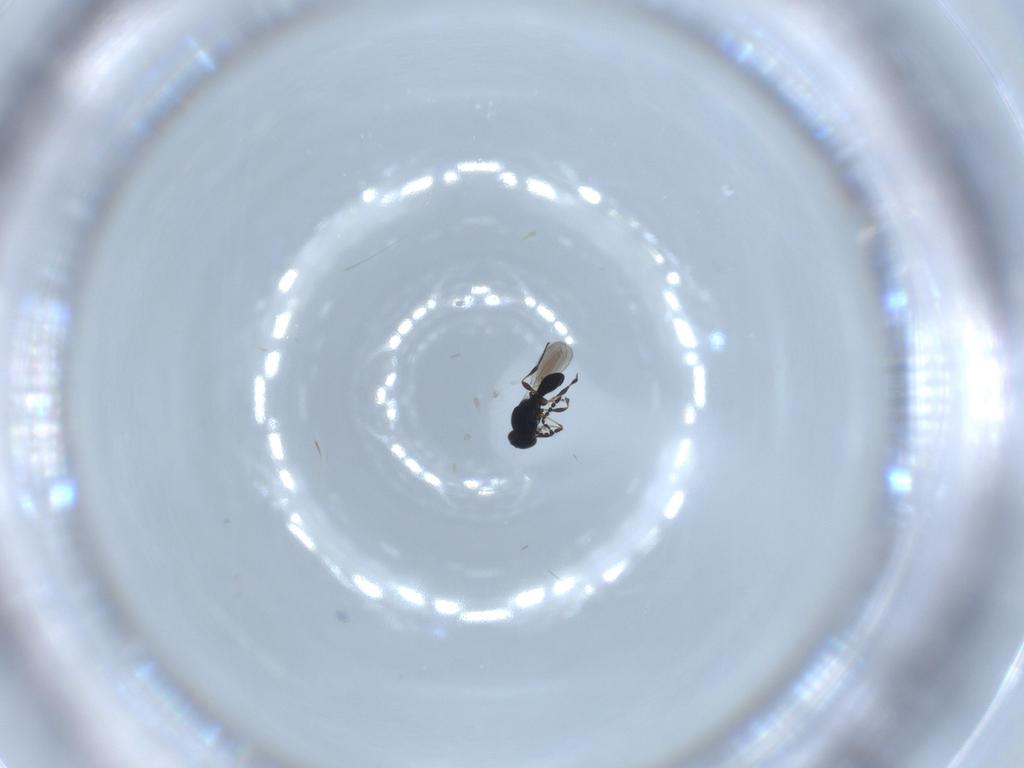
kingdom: Animalia
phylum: Arthropoda
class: Insecta
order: Hymenoptera
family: Platygastridae
